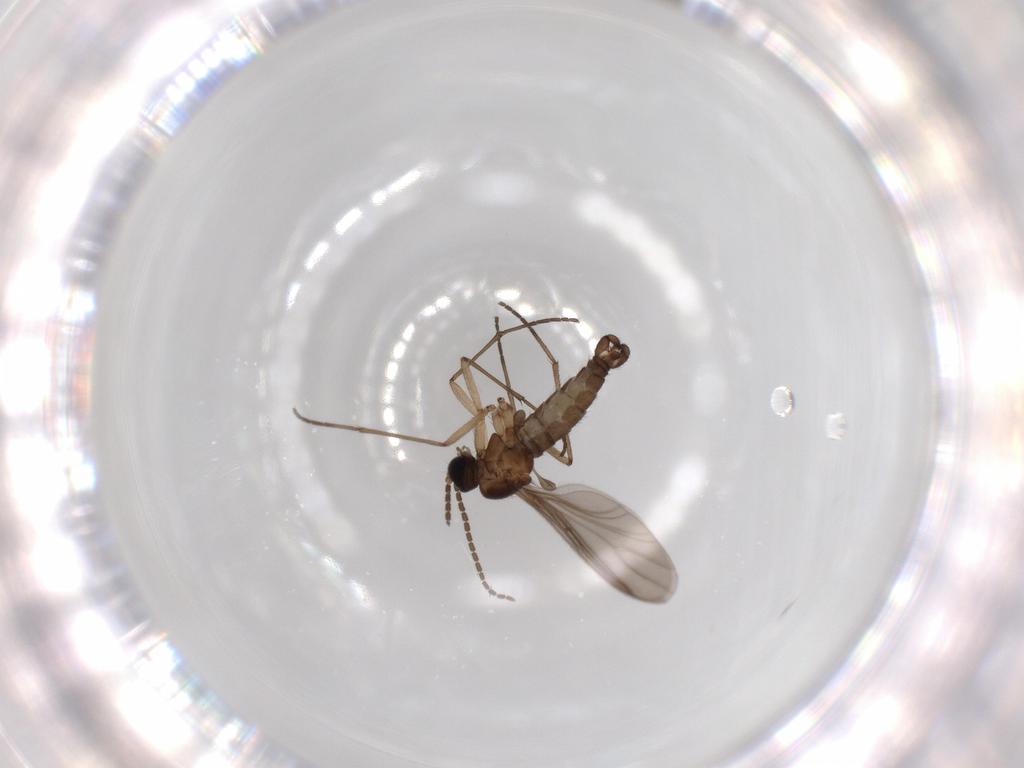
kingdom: Animalia
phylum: Arthropoda
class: Insecta
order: Diptera
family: Sciaridae
